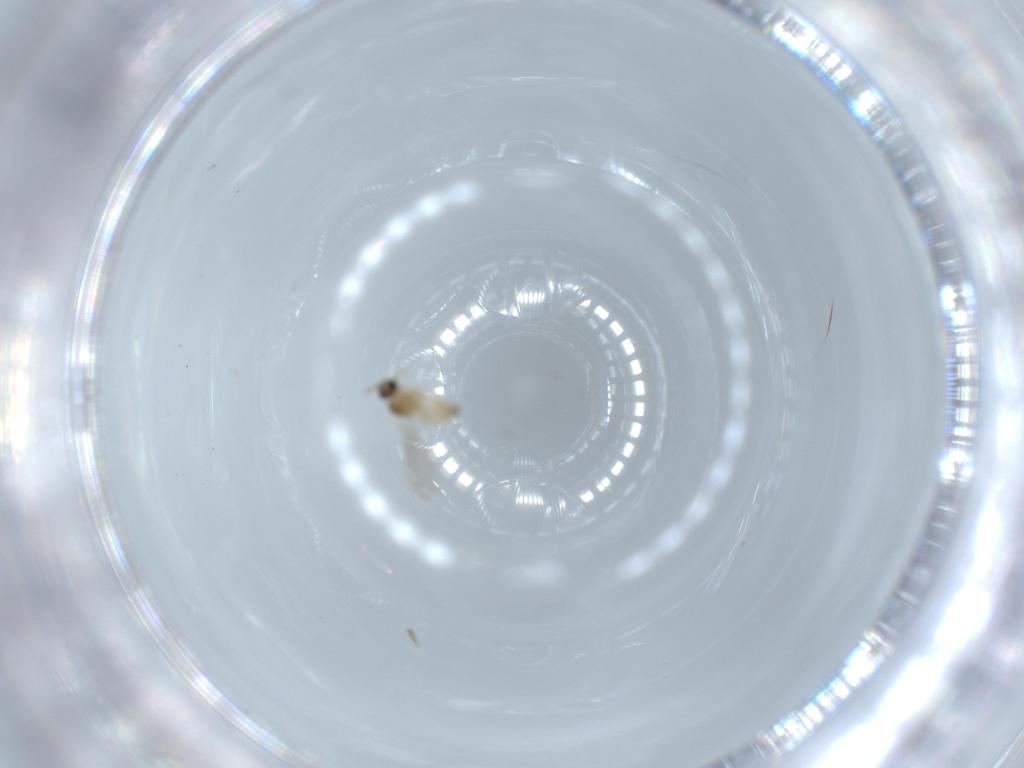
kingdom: Animalia
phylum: Arthropoda
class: Insecta
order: Diptera
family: Cecidomyiidae
